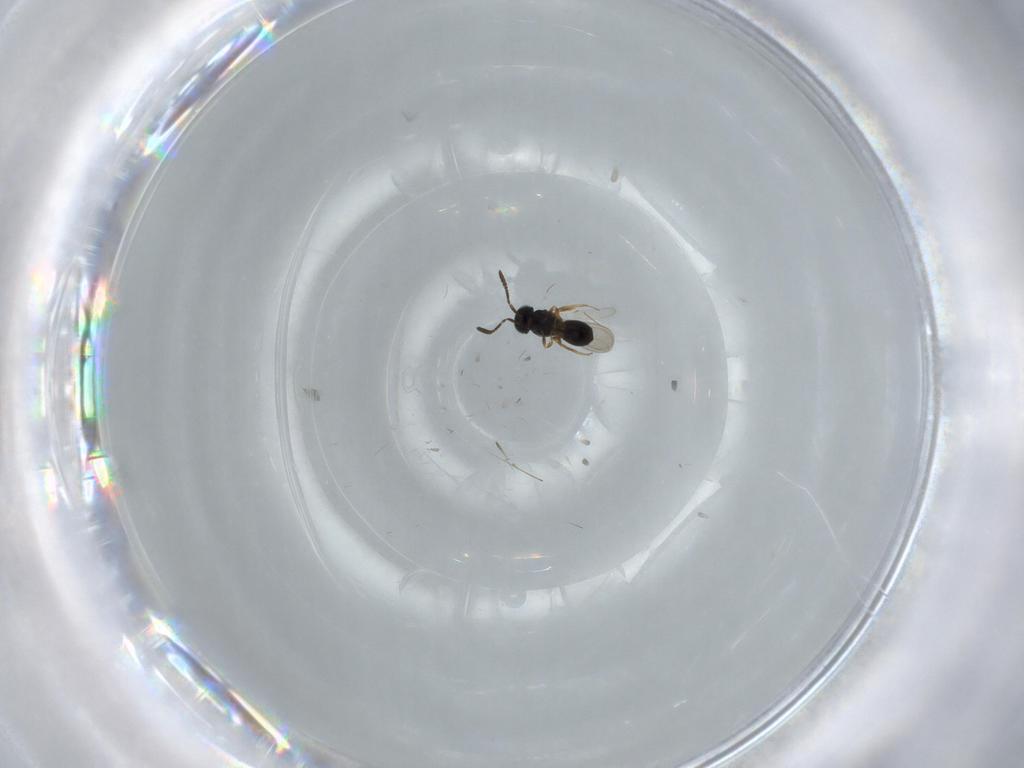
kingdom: Animalia
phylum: Arthropoda
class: Insecta
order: Hymenoptera
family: Scelionidae
